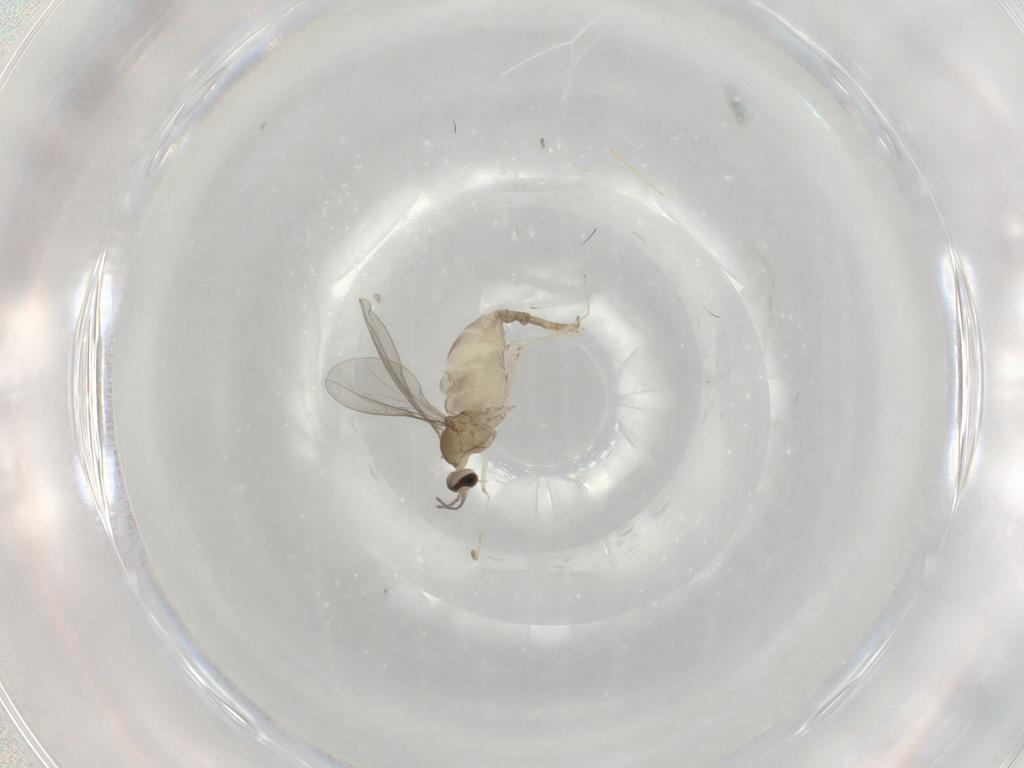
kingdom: Animalia
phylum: Arthropoda
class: Insecta
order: Diptera
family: Cecidomyiidae
